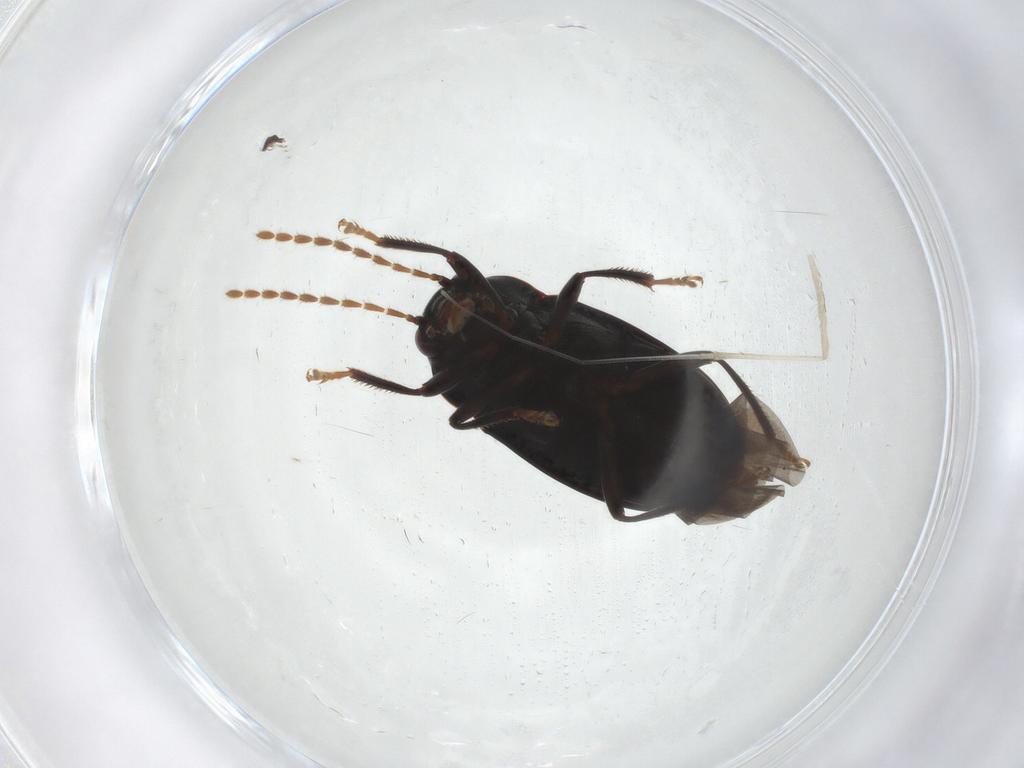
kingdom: Animalia
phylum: Arthropoda
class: Insecta
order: Coleoptera
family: Ptilodactylidae
